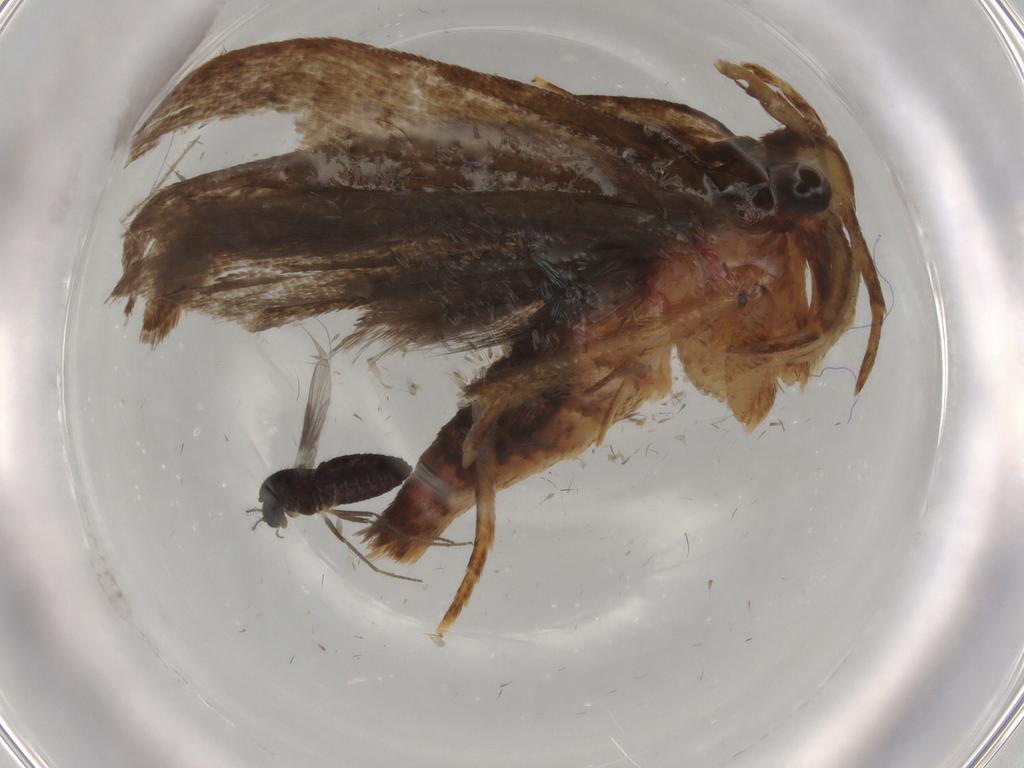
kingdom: Animalia
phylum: Arthropoda
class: Insecta
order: Lepidoptera
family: Autostichidae
